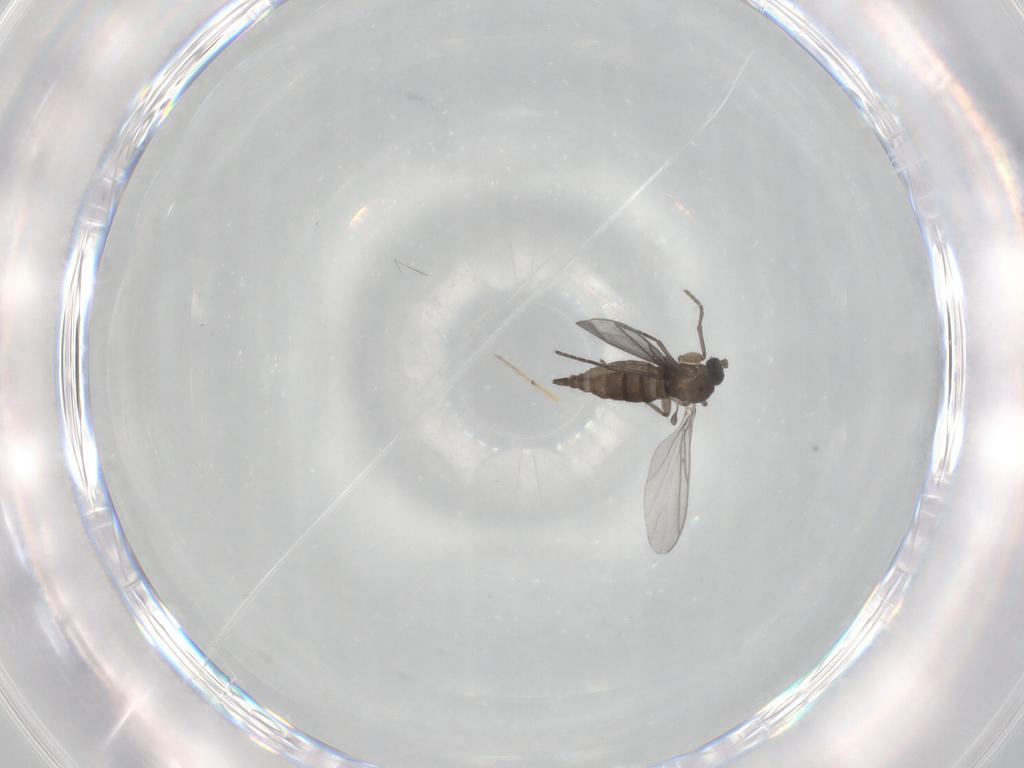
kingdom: Animalia
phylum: Arthropoda
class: Insecta
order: Diptera
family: Sciaridae
